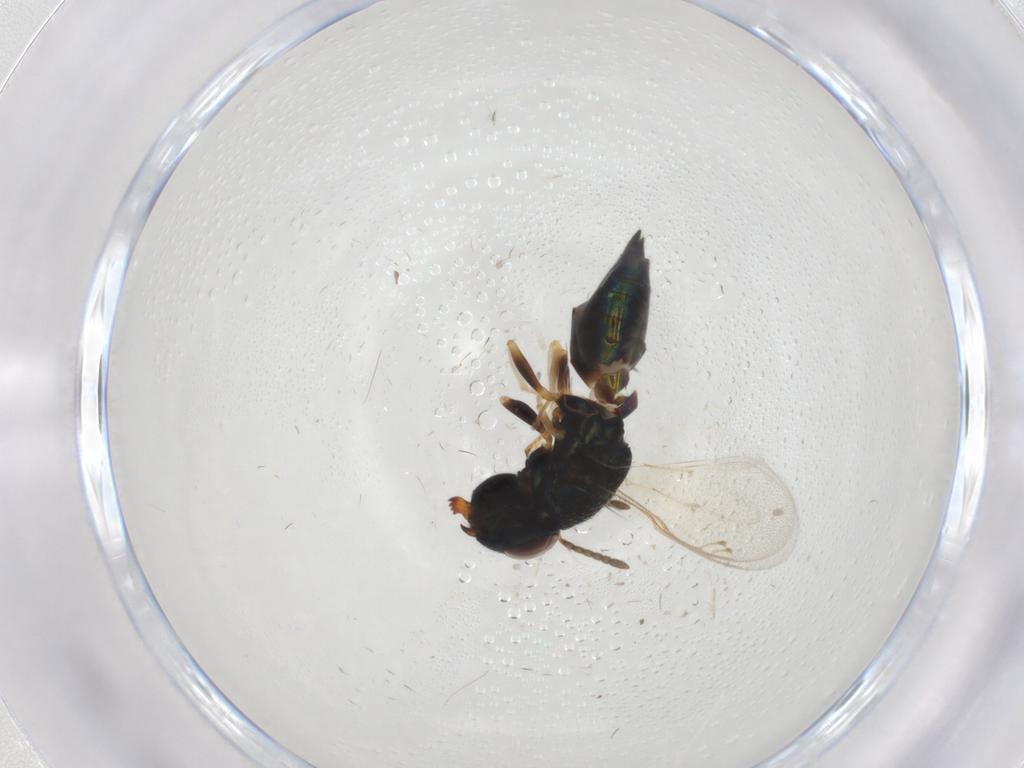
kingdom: Animalia
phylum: Arthropoda
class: Insecta
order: Hymenoptera
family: Pteromalidae
